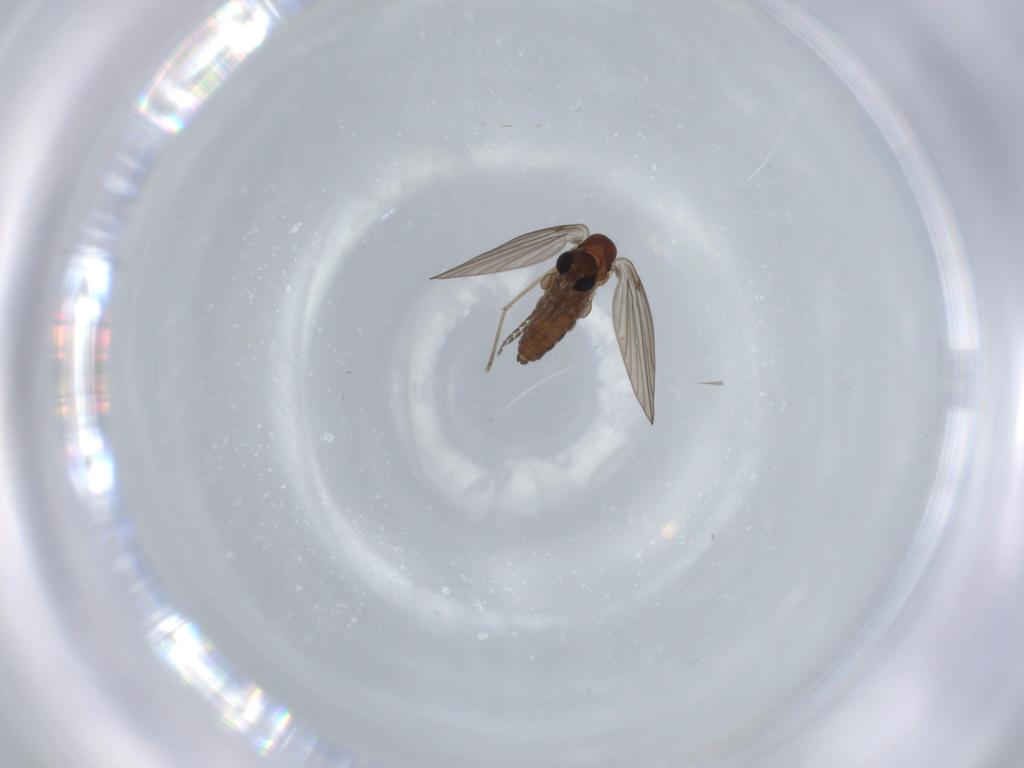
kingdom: Animalia
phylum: Arthropoda
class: Insecta
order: Diptera
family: Psychodidae
